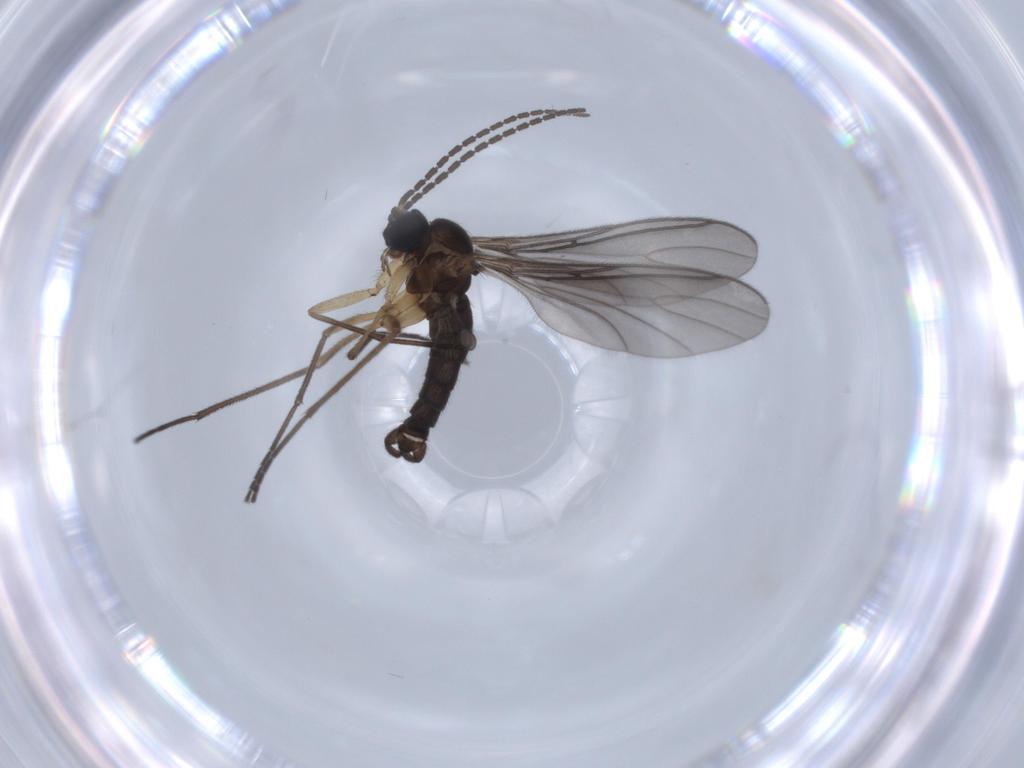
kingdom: Animalia
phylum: Arthropoda
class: Insecta
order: Diptera
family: Sciaridae
